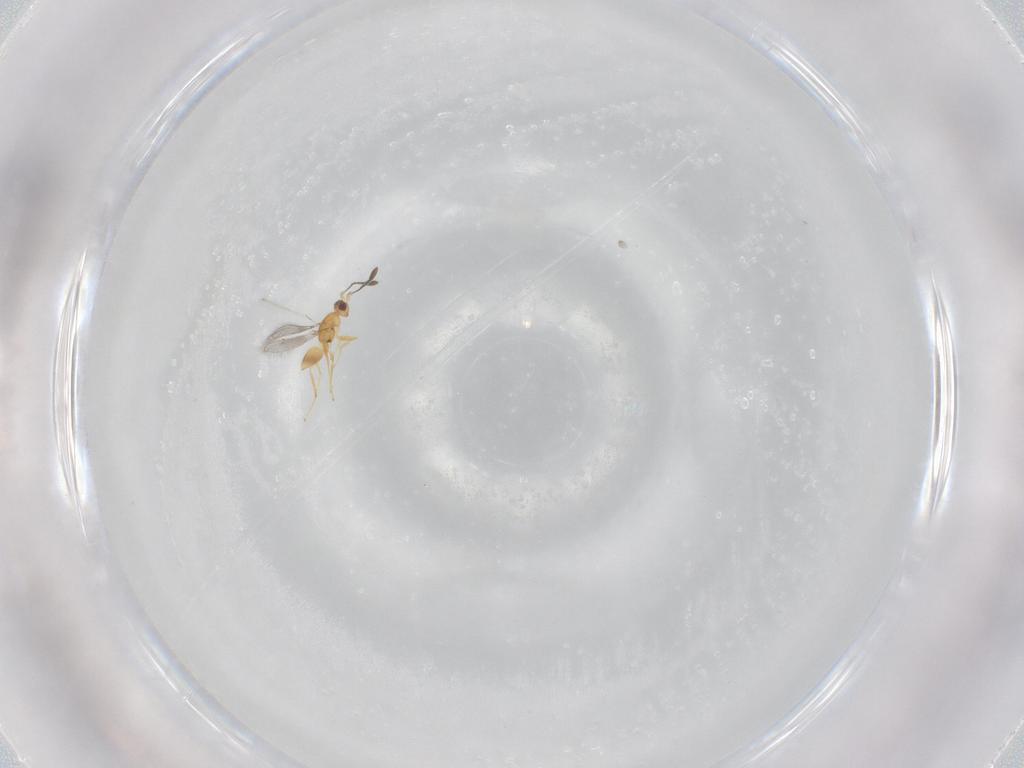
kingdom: Animalia
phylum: Arthropoda
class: Insecta
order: Hymenoptera
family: Mymaridae
